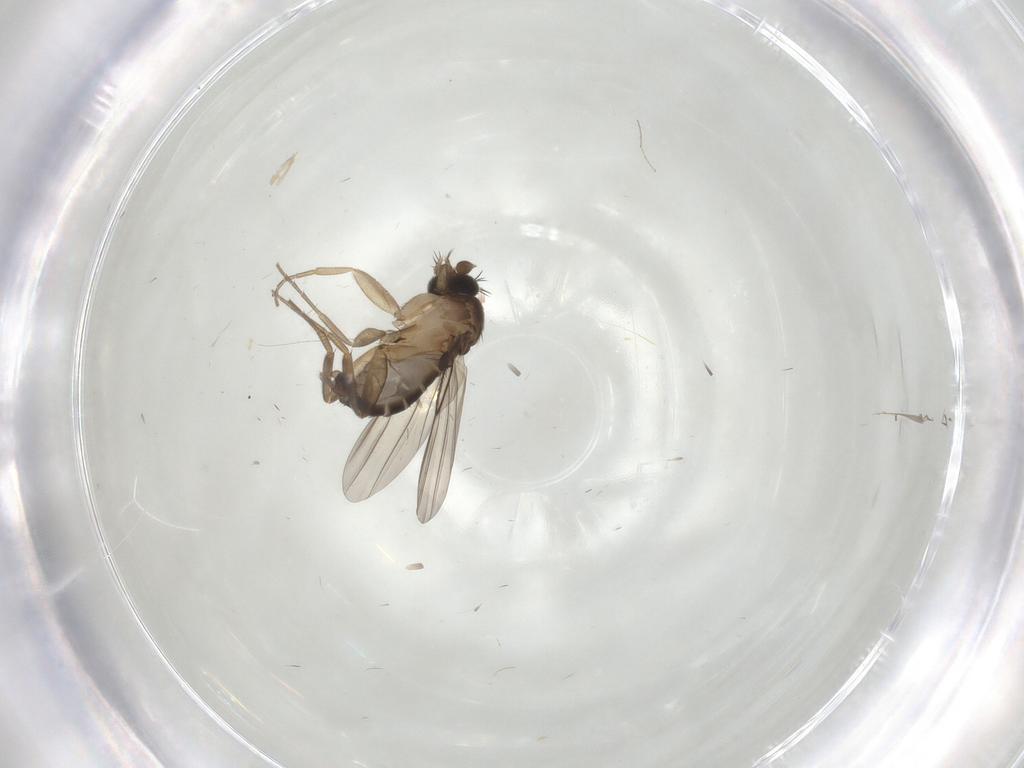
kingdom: Animalia
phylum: Arthropoda
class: Insecta
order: Diptera
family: Phoridae
